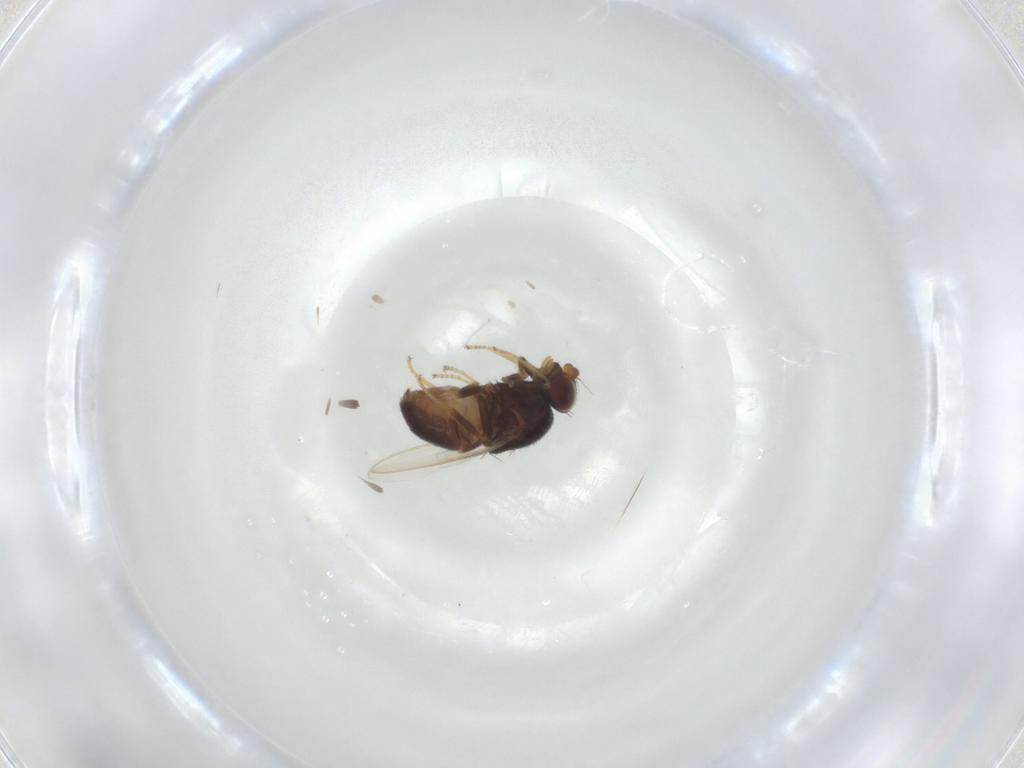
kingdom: Animalia
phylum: Arthropoda
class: Insecta
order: Diptera
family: Chloropidae
